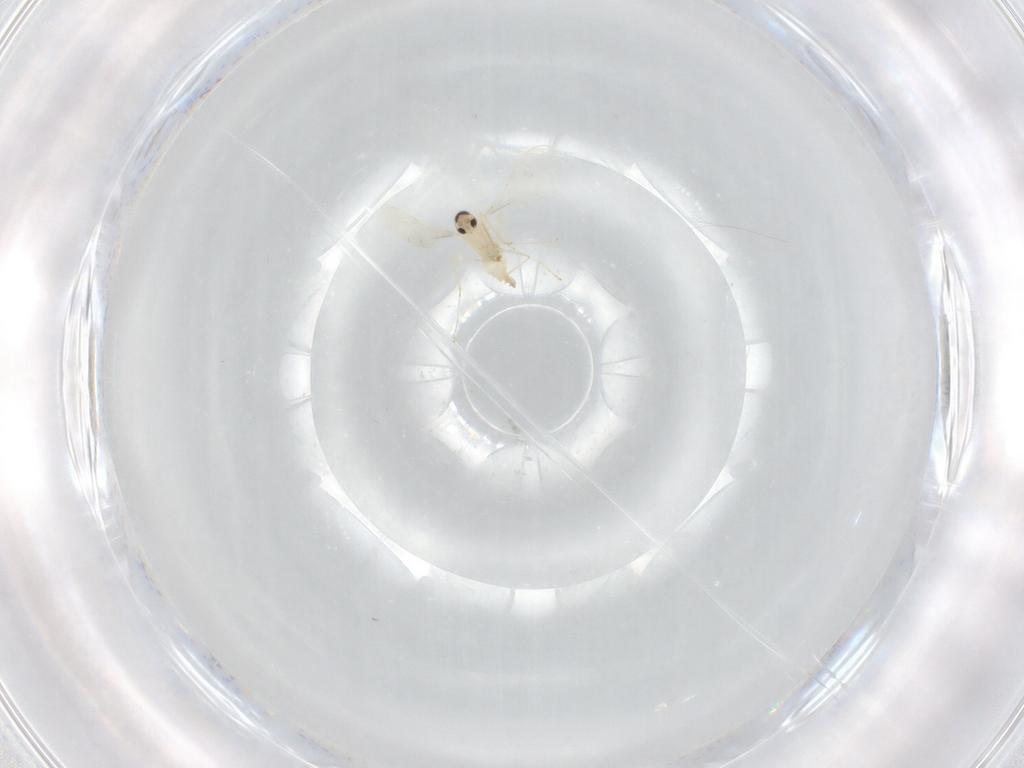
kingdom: Animalia
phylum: Arthropoda
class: Insecta
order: Diptera
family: Cecidomyiidae
